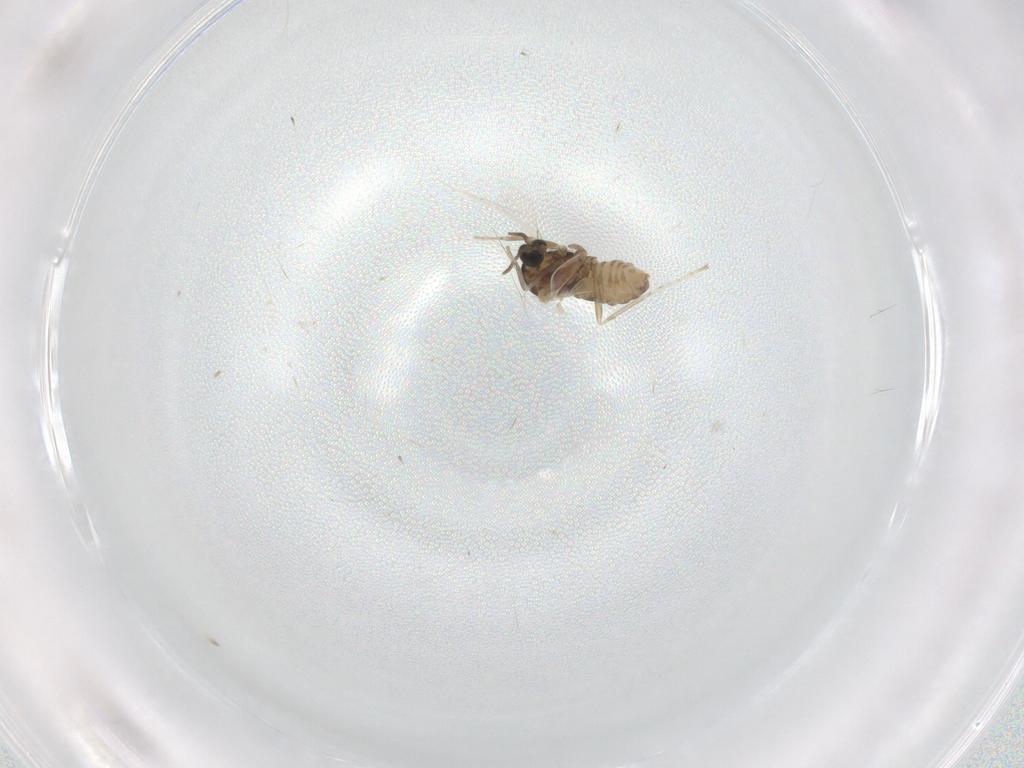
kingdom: Animalia
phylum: Arthropoda
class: Insecta
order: Diptera
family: Cecidomyiidae
